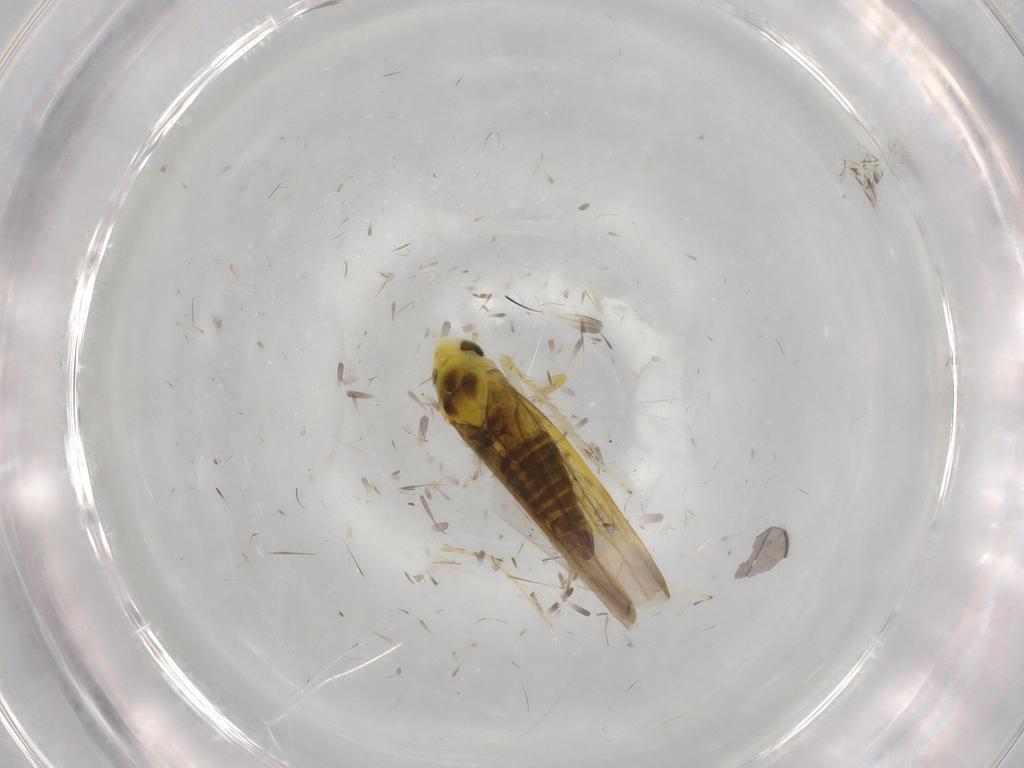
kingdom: Animalia
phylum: Arthropoda
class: Insecta
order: Hemiptera
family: Cicadellidae
